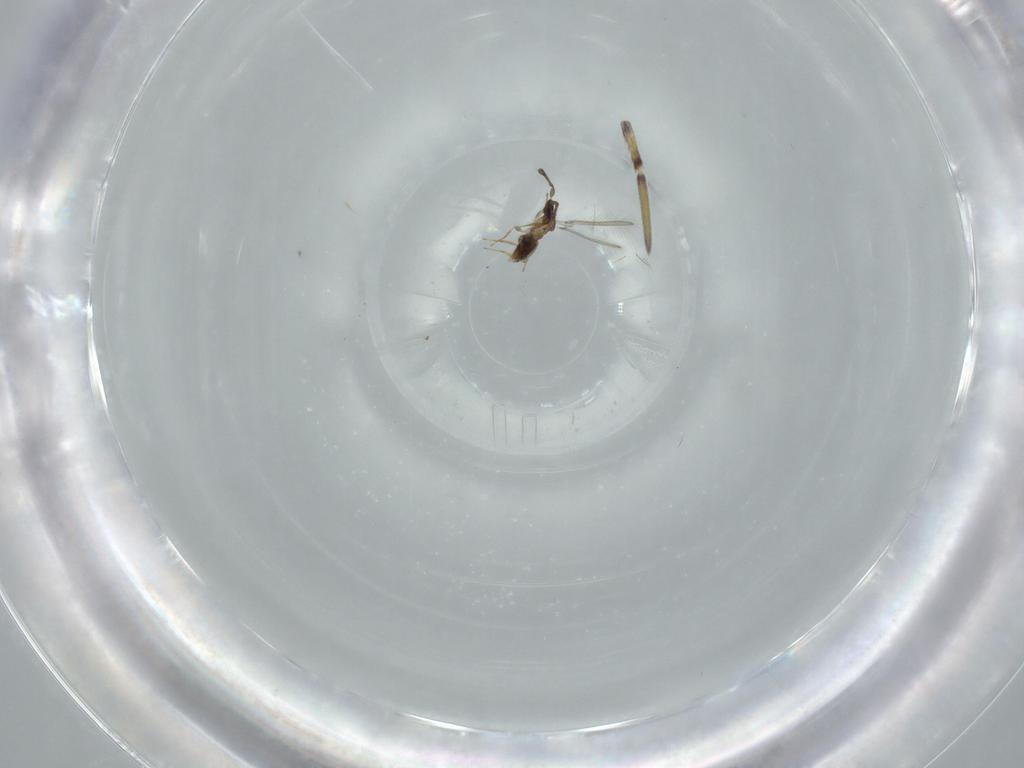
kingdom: Animalia
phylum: Arthropoda
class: Insecta
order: Hymenoptera
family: Mymaridae
